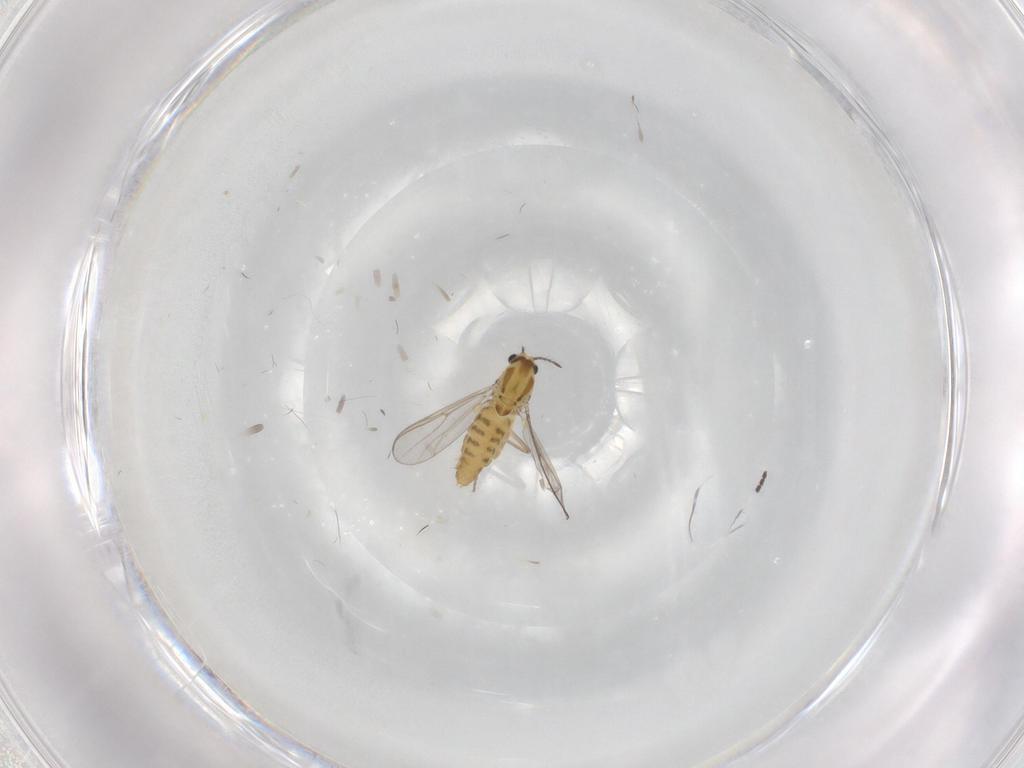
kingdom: Animalia
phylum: Arthropoda
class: Insecta
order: Diptera
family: Chironomidae
